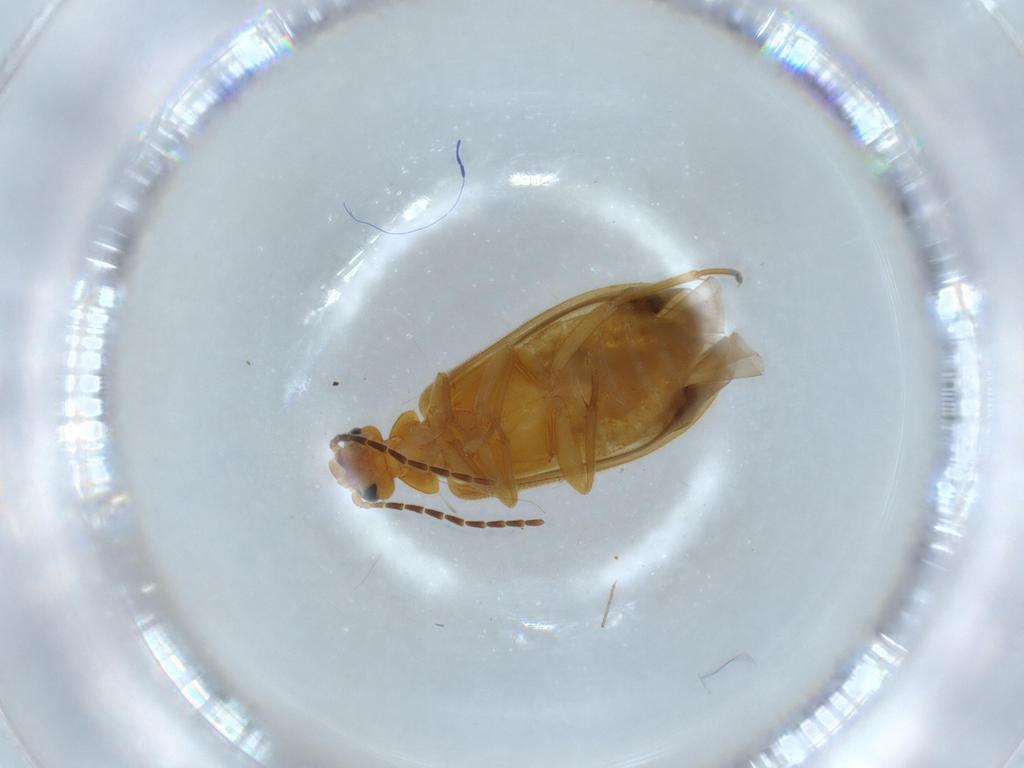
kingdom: Animalia
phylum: Arthropoda
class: Insecta
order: Coleoptera
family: Scraptiidae
